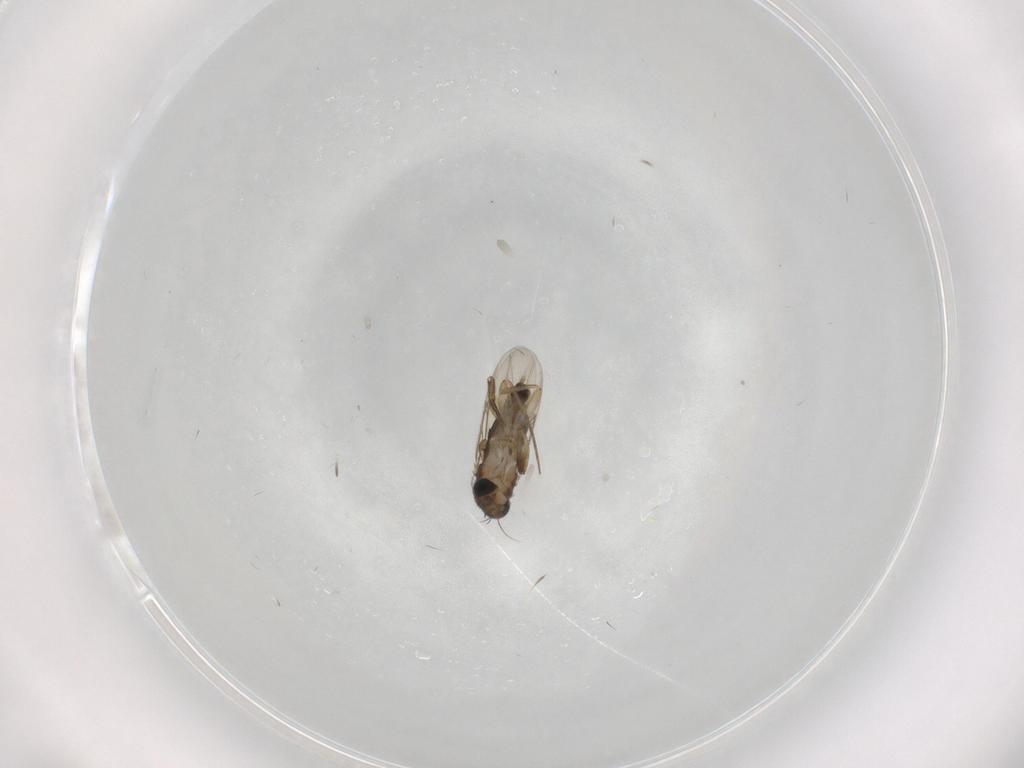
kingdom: Animalia
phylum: Arthropoda
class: Insecta
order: Diptera
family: Phoridae
